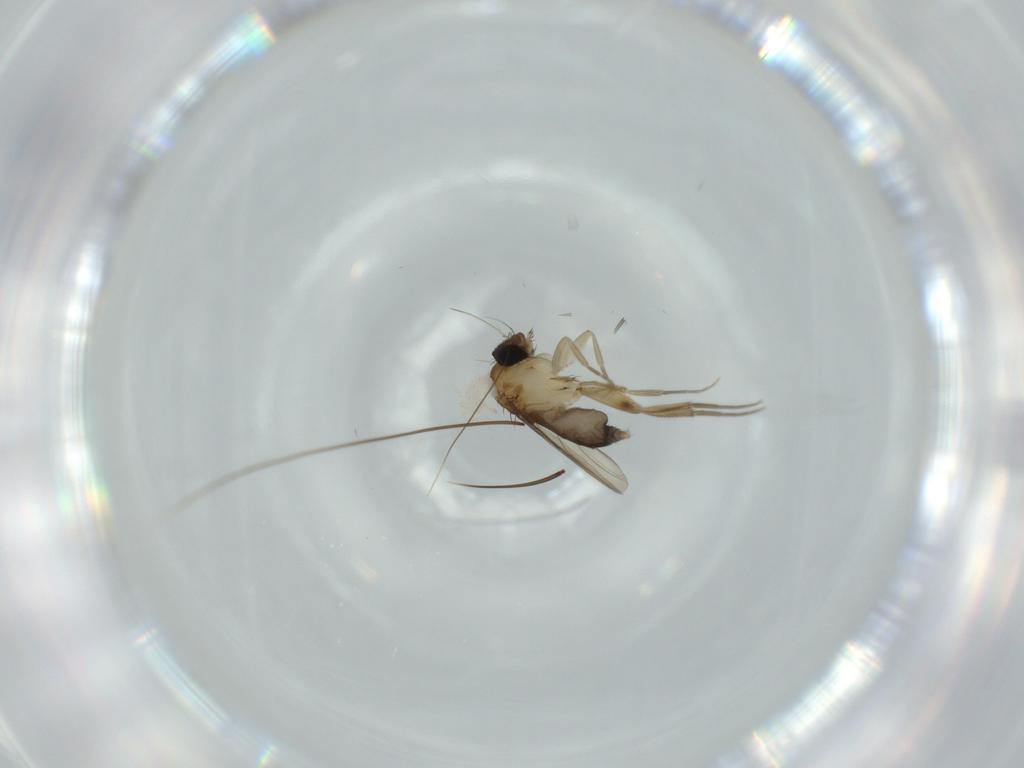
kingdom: Animalia
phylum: Arthropoda
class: Insecta
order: Diptera
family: Phoridae
